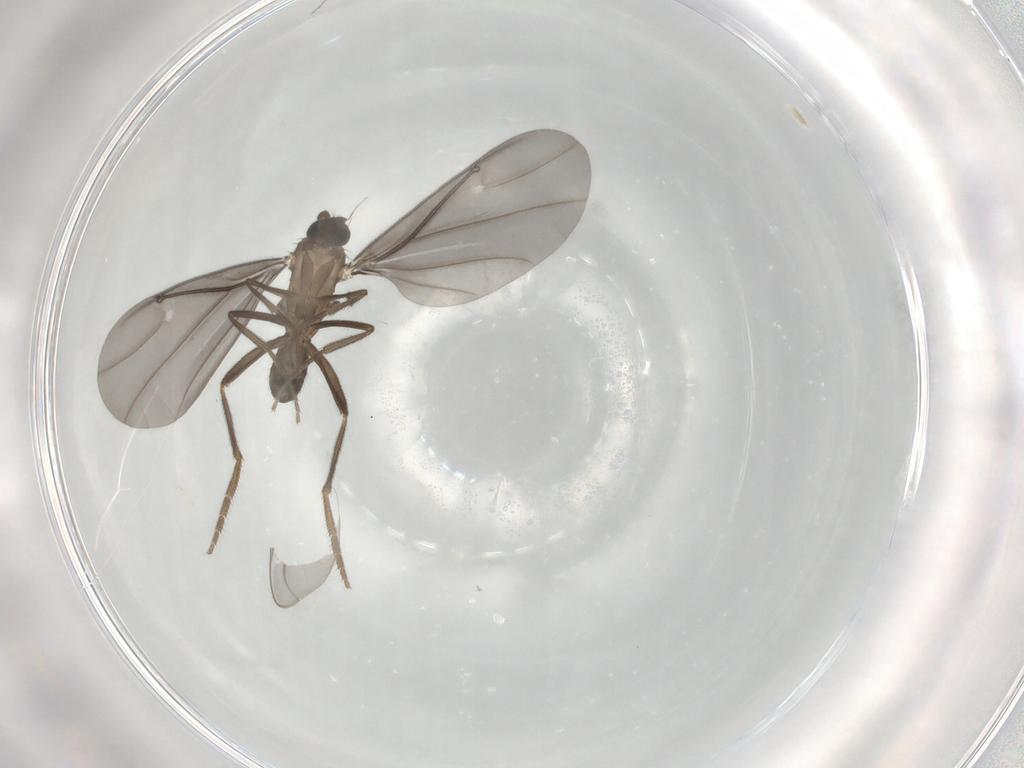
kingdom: Animalia
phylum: Arthropoda
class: Insecta
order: Diptera
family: Phoridae
